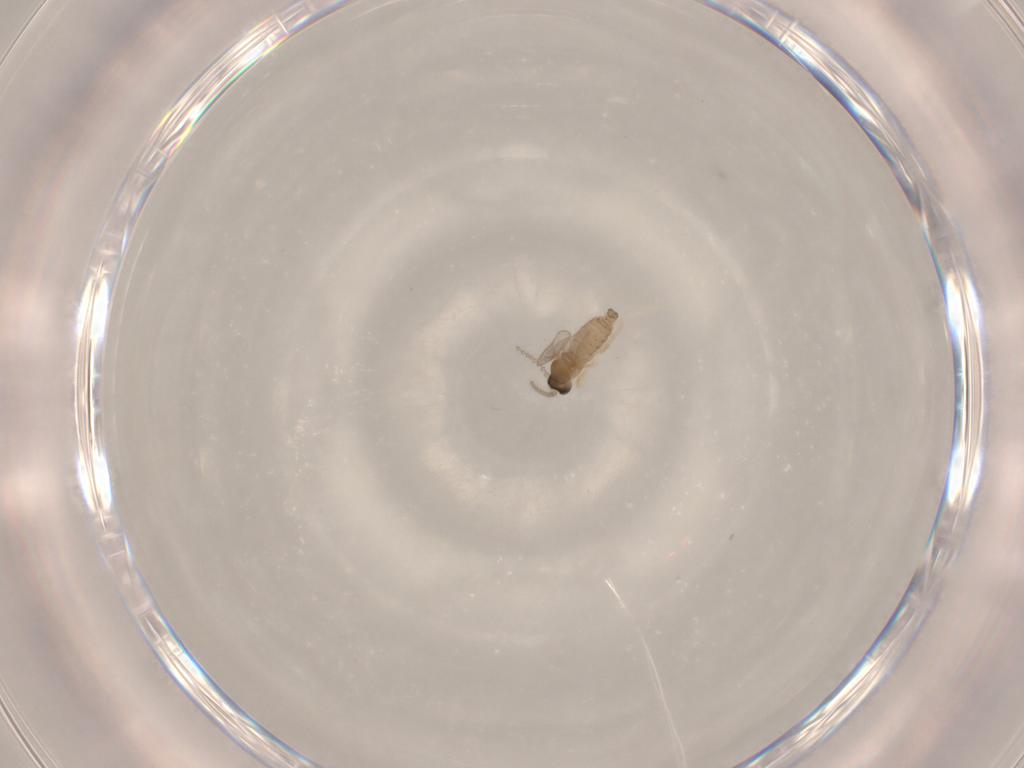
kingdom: Animalia
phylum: Arthropoda
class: Insecta
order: Diptera
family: Cecidomyiidae
